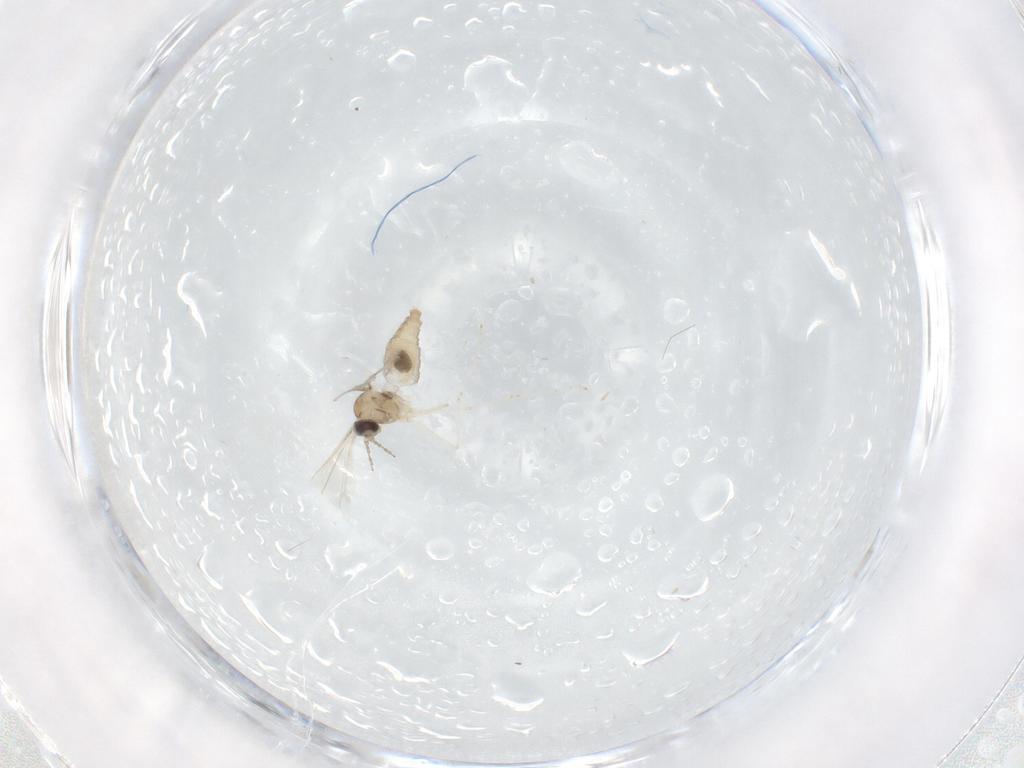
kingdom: Animalia
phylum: Arthropoda
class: Insecta
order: Diptera
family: Cecidomyiidae
